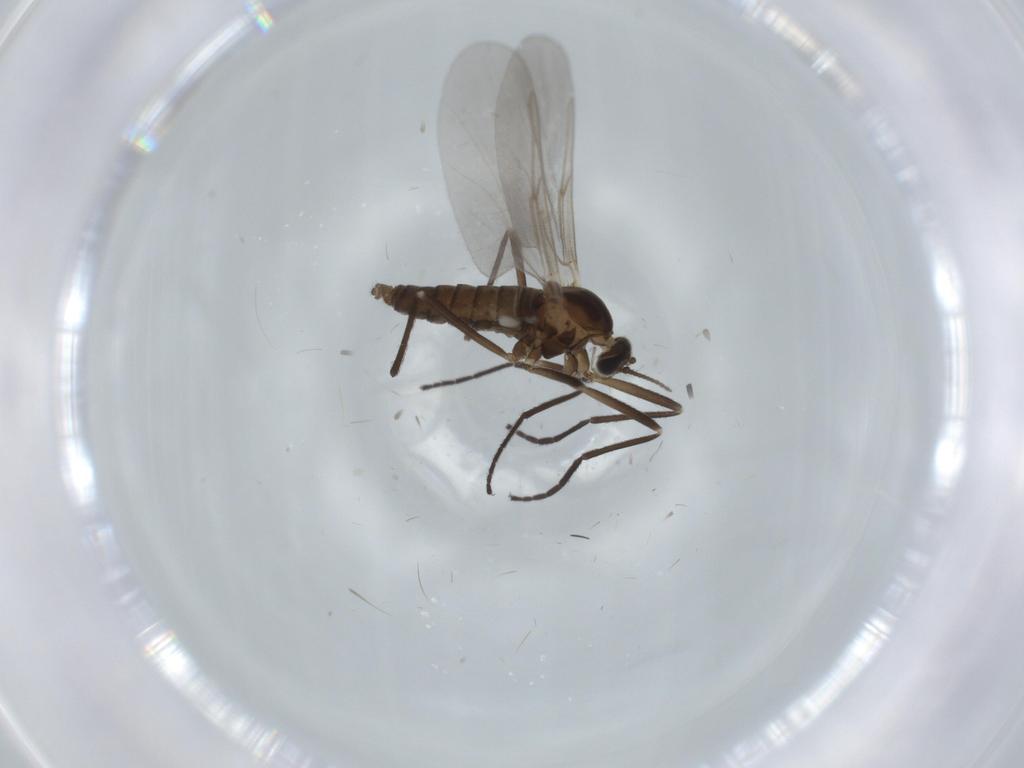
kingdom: Animalia
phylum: Arthropoda
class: Insecta
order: Diptera
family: Cecidomyiidae
